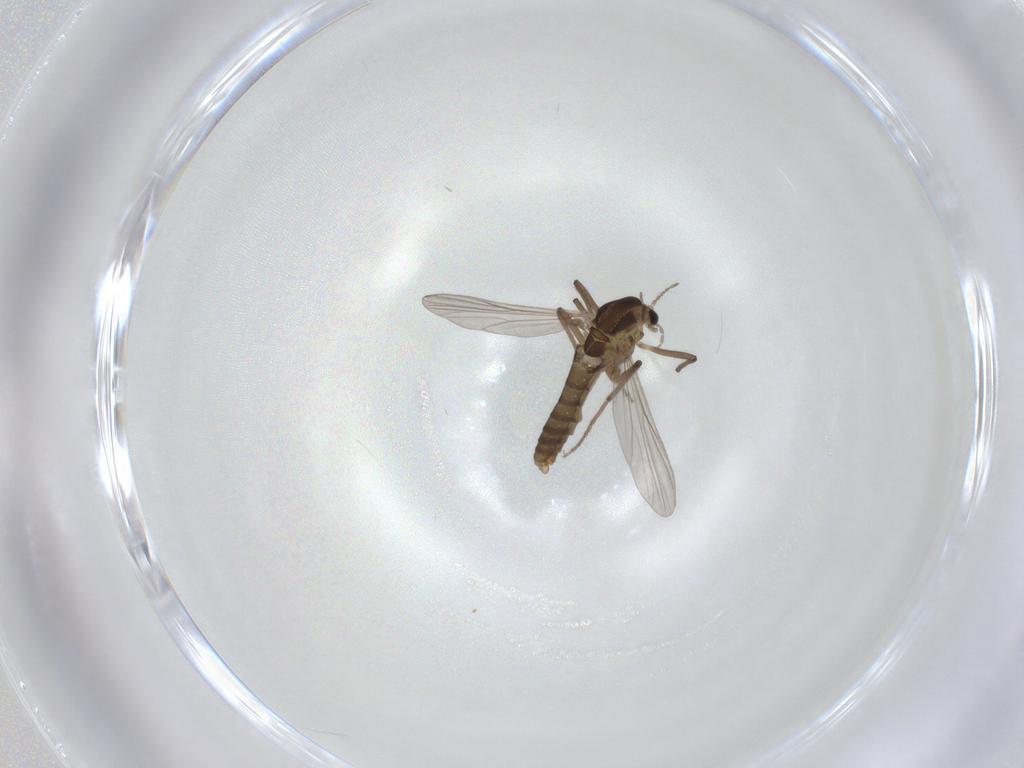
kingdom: Animalia
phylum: Arthropoda
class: Insecta
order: Diptera
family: Chironomidae
